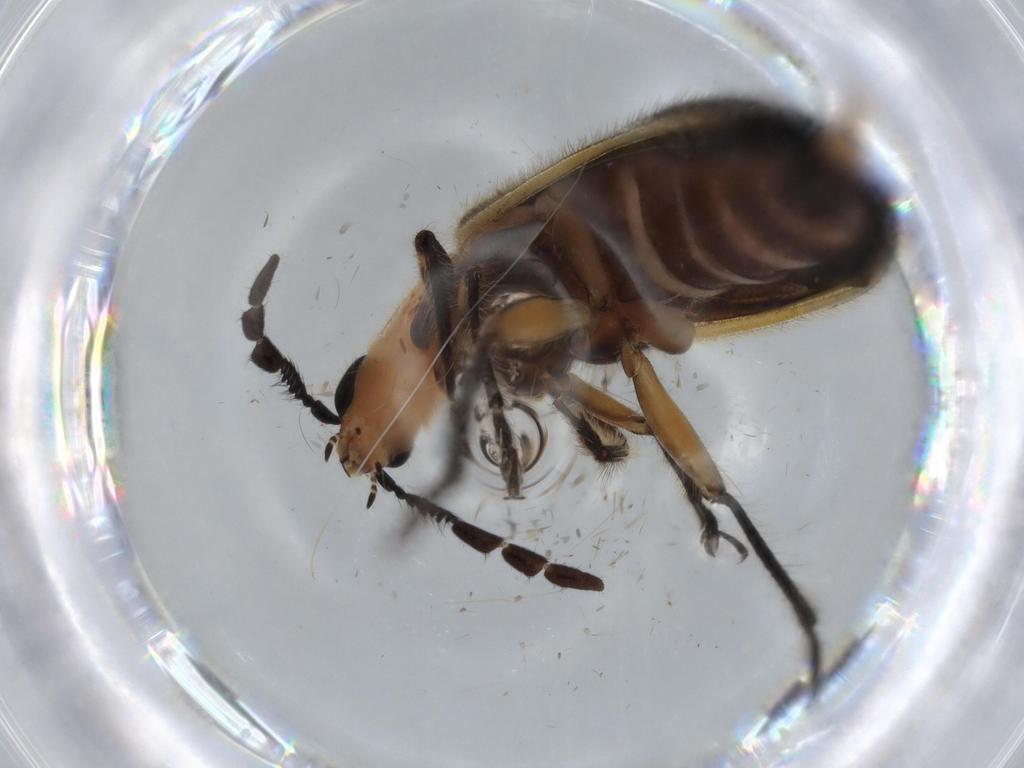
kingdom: Animalia
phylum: Arthropoda
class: Insecta
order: Coleoptera
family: Cleridae
